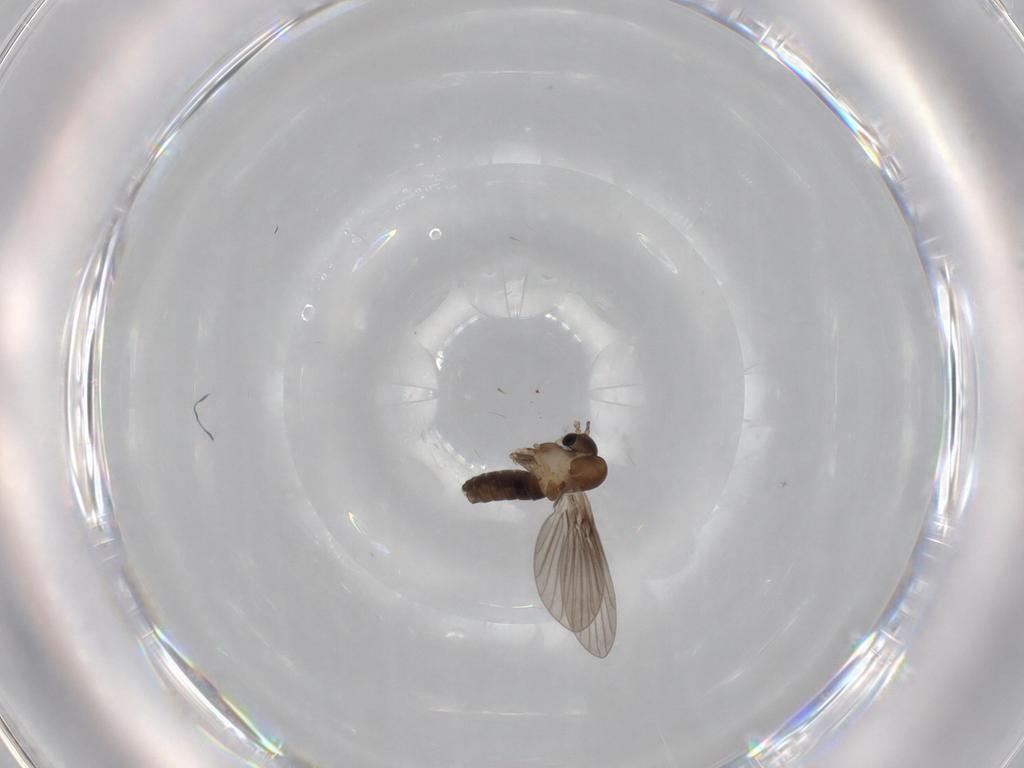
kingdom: Animalia
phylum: Arthropoda
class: Insecta
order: Diptera
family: Psychodidae
